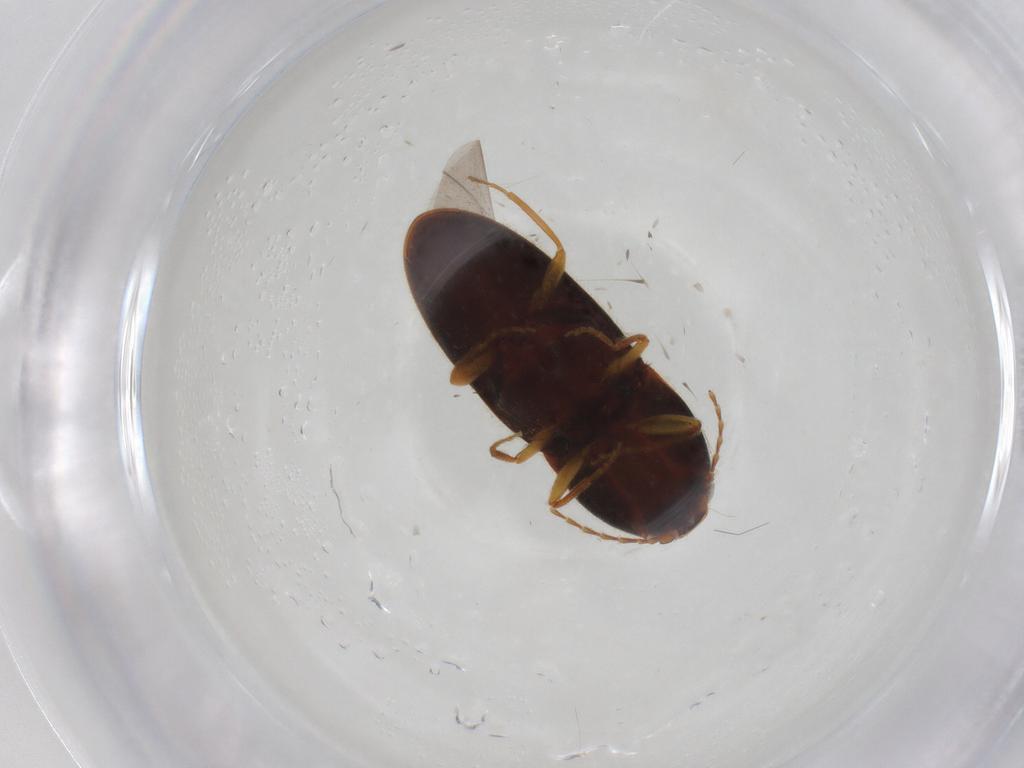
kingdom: Animalia
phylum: Arthropoda
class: Insecta
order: Coleoptera
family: Elateridae
